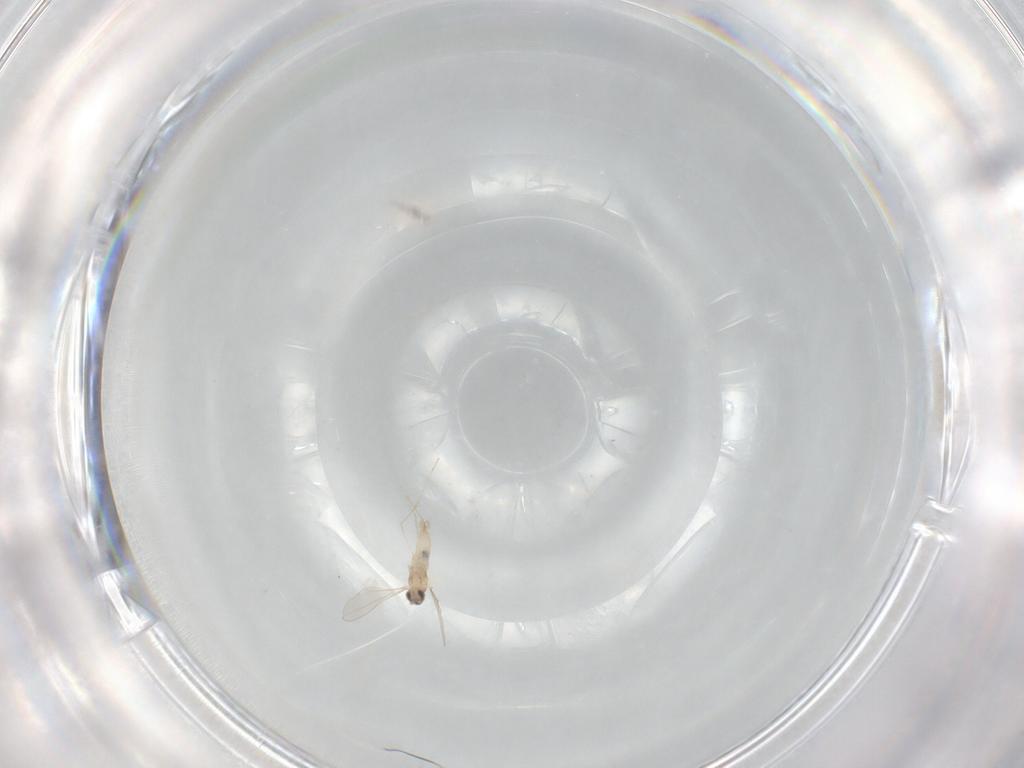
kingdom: Animalia
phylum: Arthropoda
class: Insecta
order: Diptera
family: Cecidomyiidae
